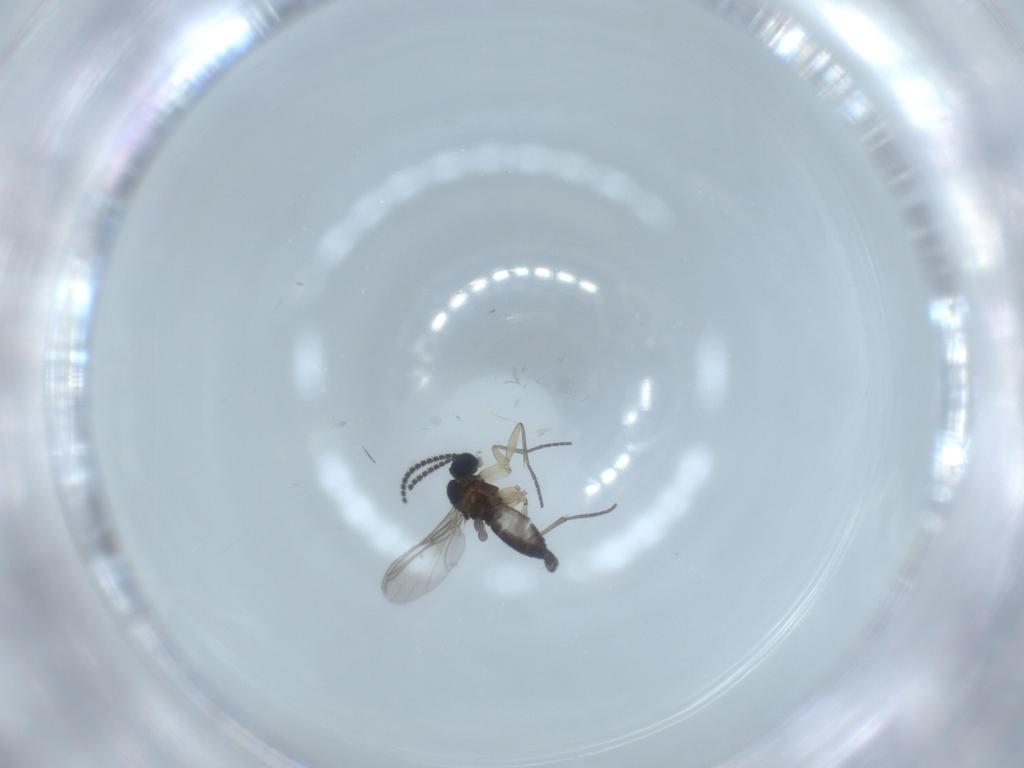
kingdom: Animalia
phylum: Arthropoda
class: Insecta
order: Diptera
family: Sciaridae
